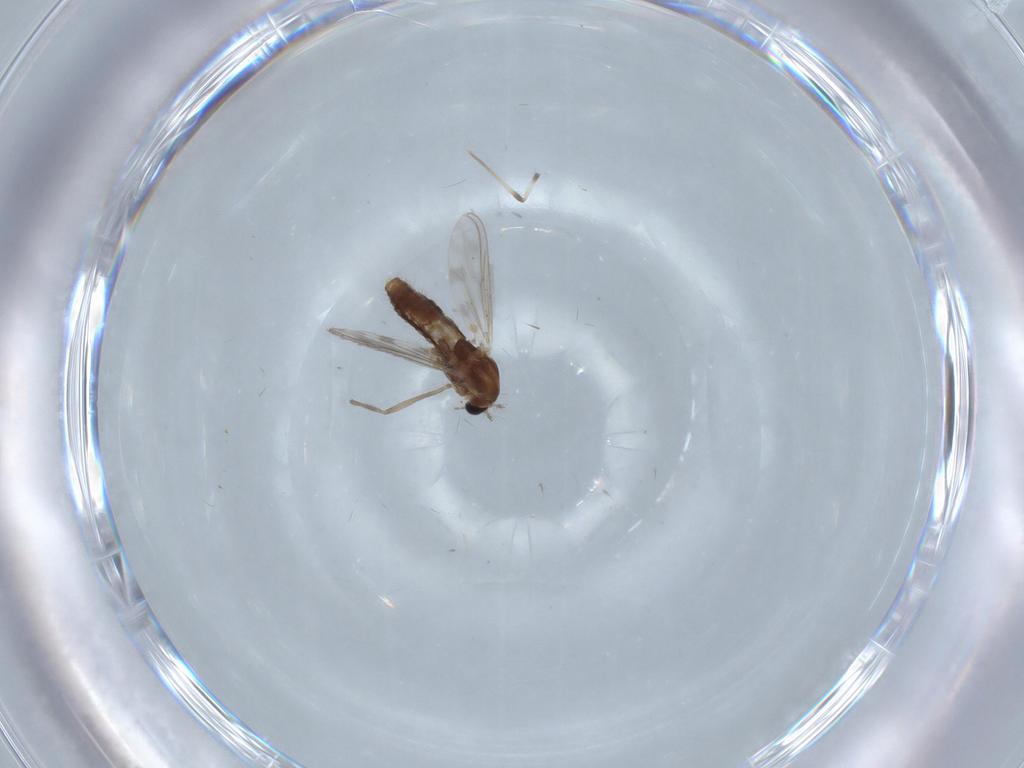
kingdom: Animalia
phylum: Arthropoda
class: Insecta
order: Diptera
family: Chironomidae
